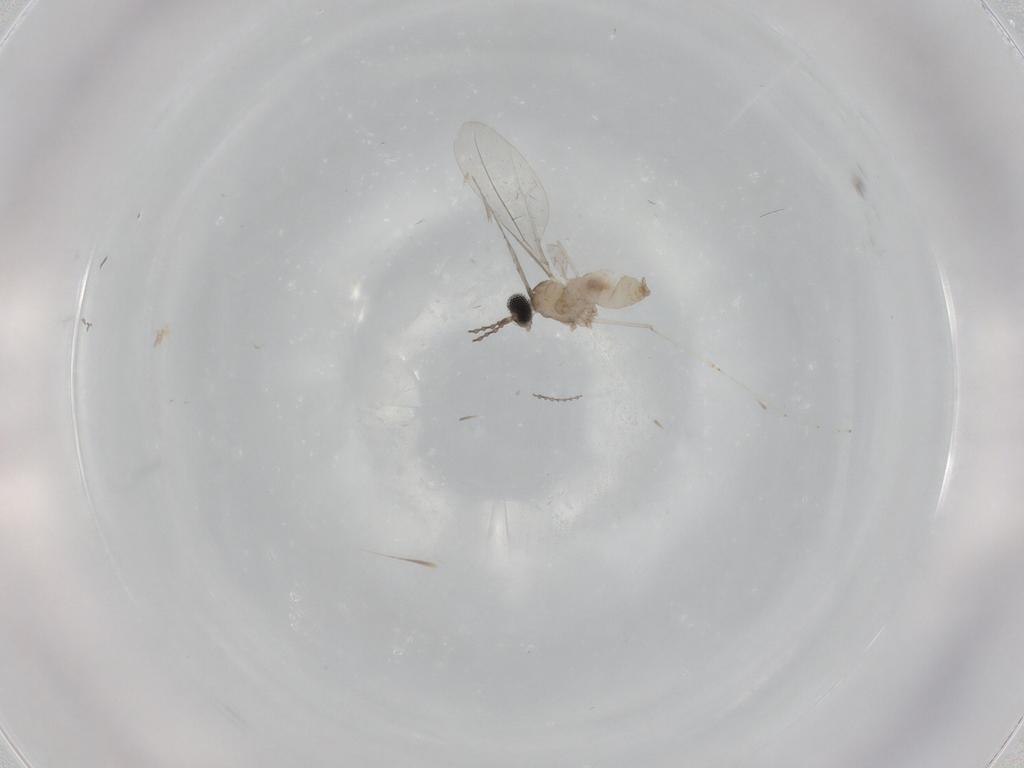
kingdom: Animalia
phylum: Arthropoda
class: Insecta
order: Diptera
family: Cecidomyiidae
